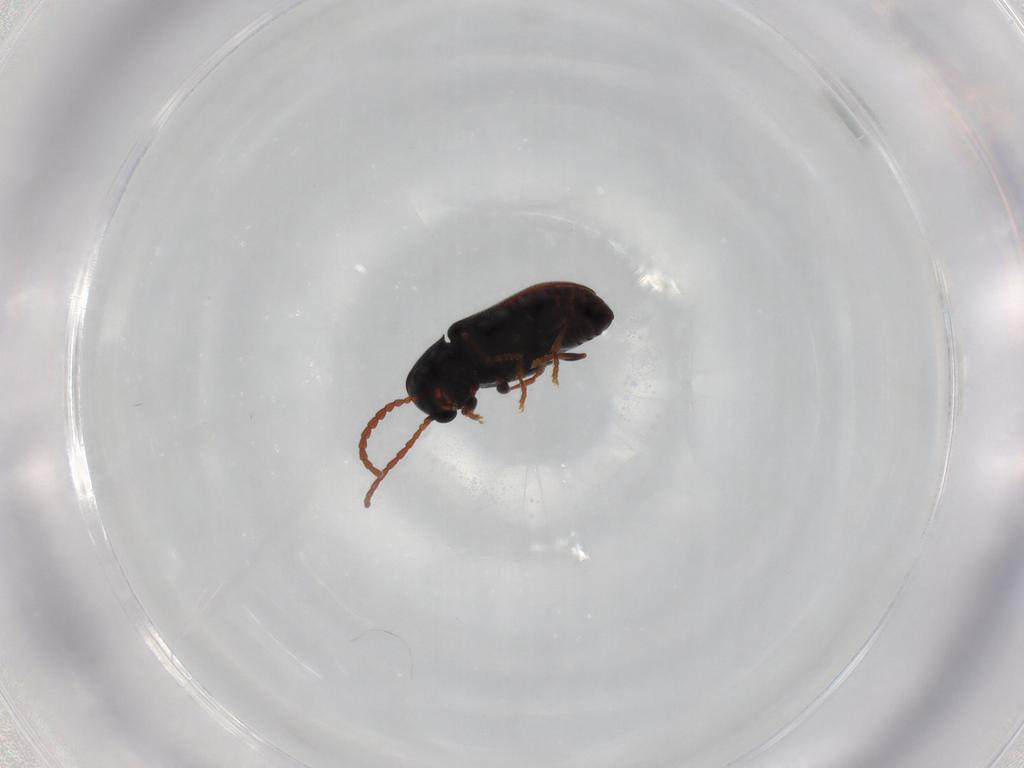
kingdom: Animalia
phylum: Arthropoda
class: Insecta
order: Coleoptera
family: Ptinidae
